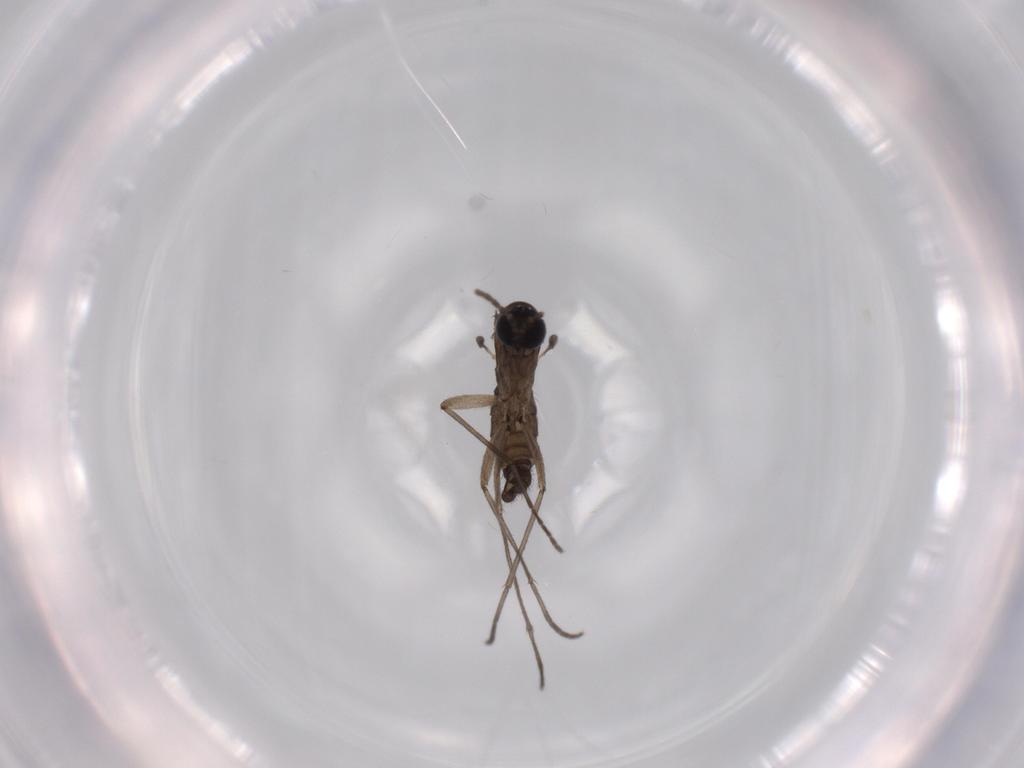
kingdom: Animalia
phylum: Arthropoda
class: Insecta
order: Diptera
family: Sciaridae
